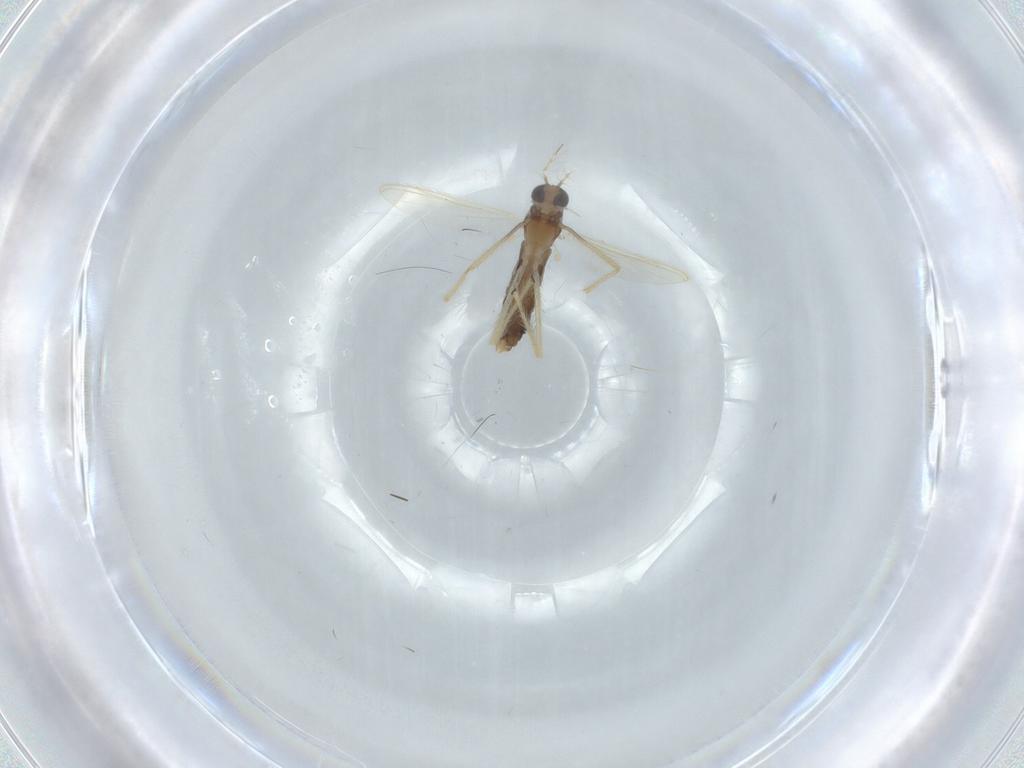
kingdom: Animalia
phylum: Arthropoda
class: Insecta
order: Diptera
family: Chironomidae
